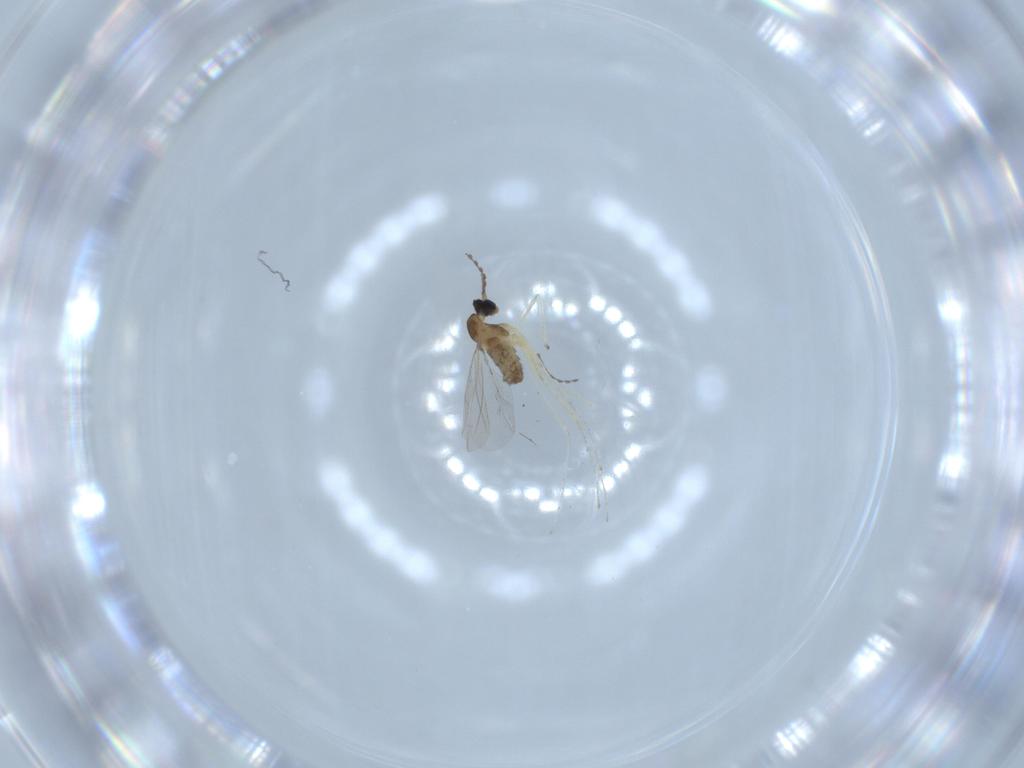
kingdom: Animalia
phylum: Arthropoda
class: Insecta
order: Diptera
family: Cecidomyiidae
